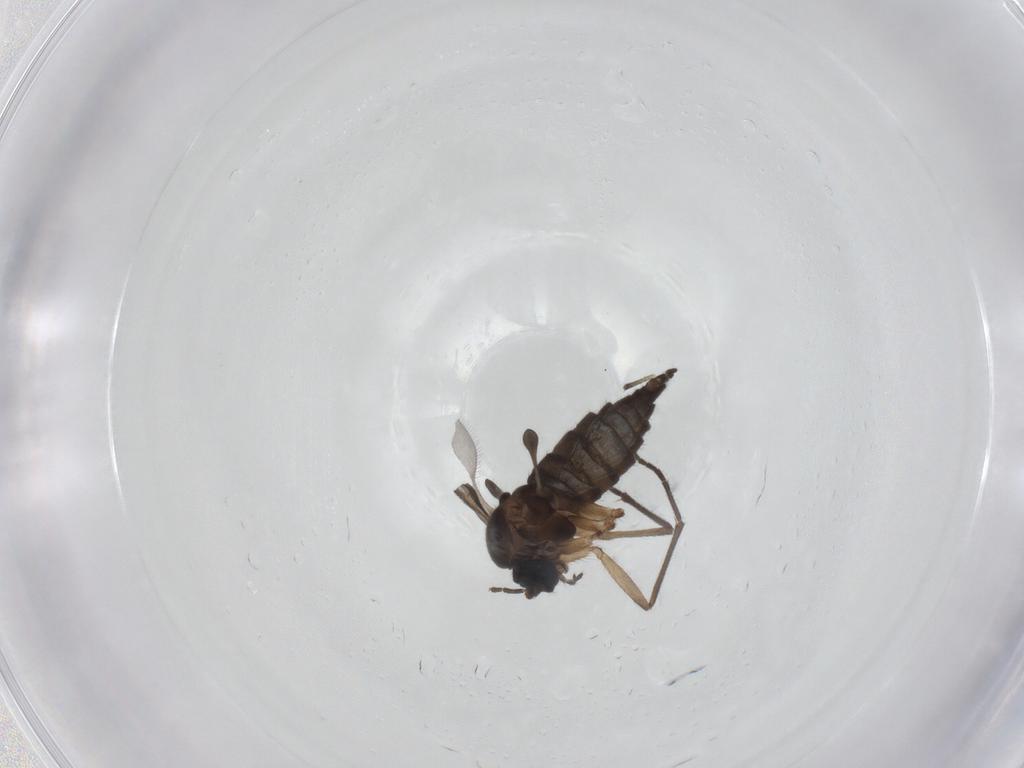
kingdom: Animalia
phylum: Arthropoda
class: Insecta
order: Diptera
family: Sciaridae
